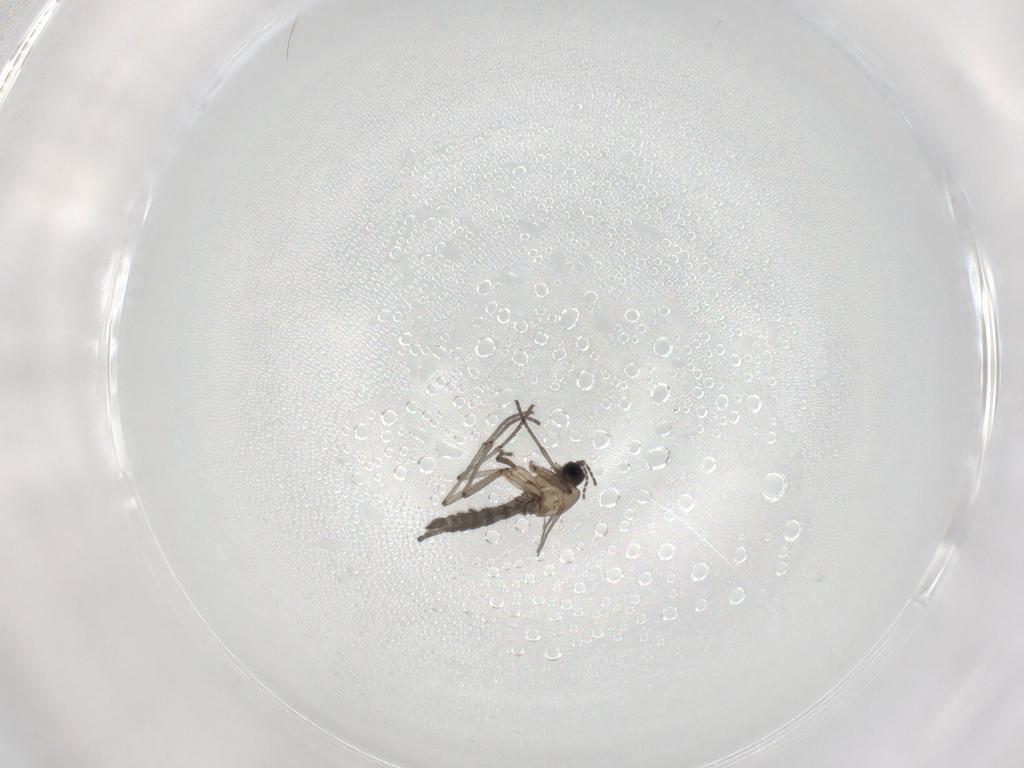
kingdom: Animalia
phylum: Arthropoda
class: Insecta
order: Diptera
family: Sciaridae
